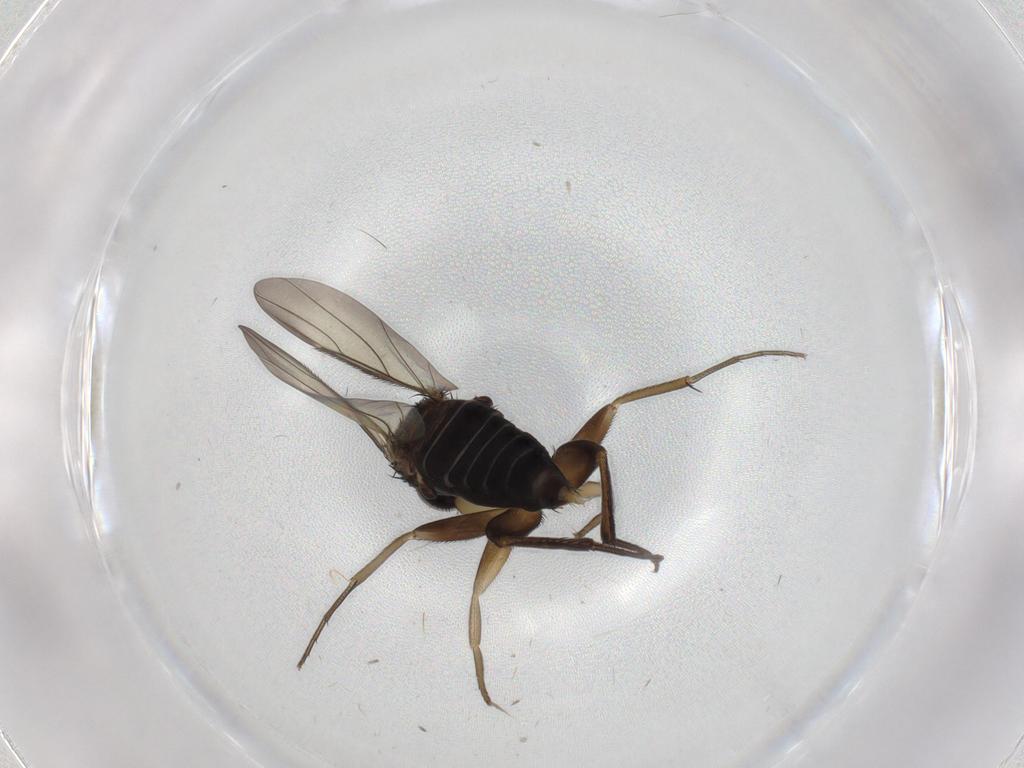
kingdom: Animalia
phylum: Arthropoda
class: Insecta
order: Diptera
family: Phoridae
